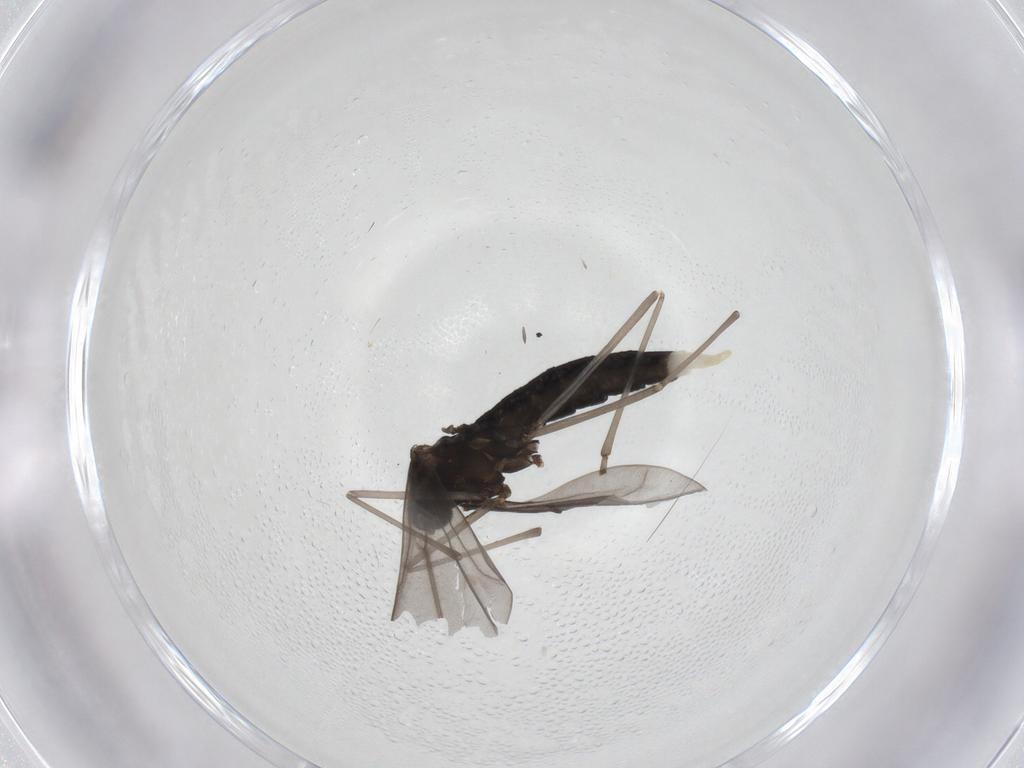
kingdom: Animalia
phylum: Arthropoda
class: Insecta
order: Diptera
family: Cecidomyiidae
